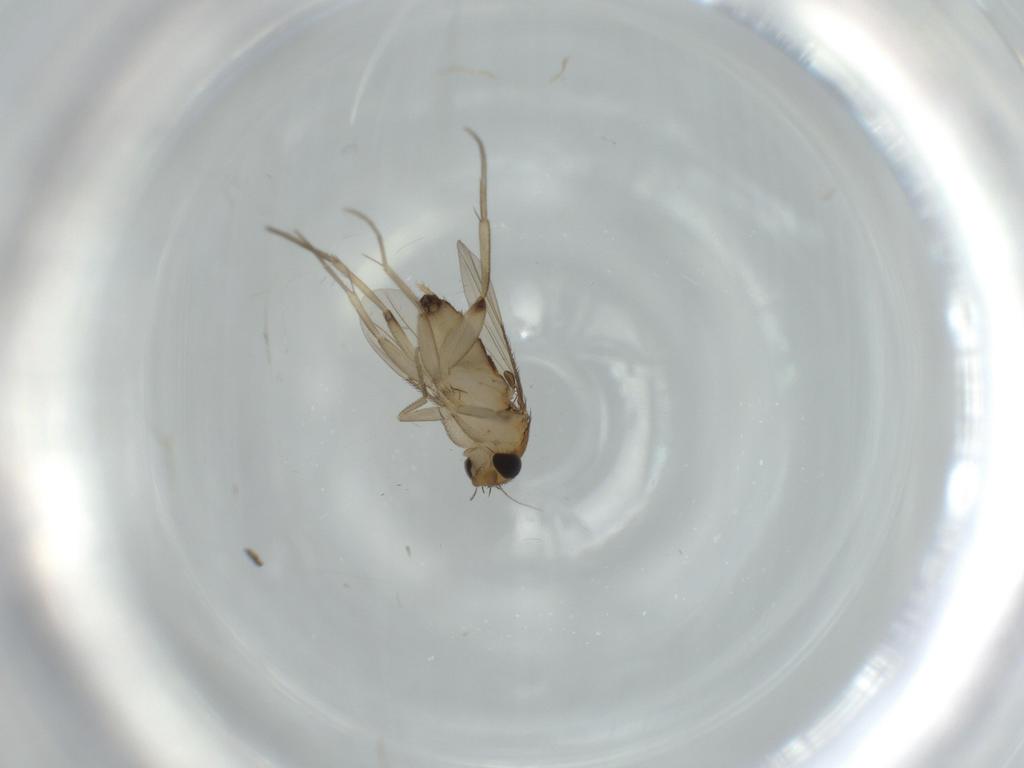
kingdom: Animalia
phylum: Arthropoda
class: Insecta
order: Diptera
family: Phoridae
